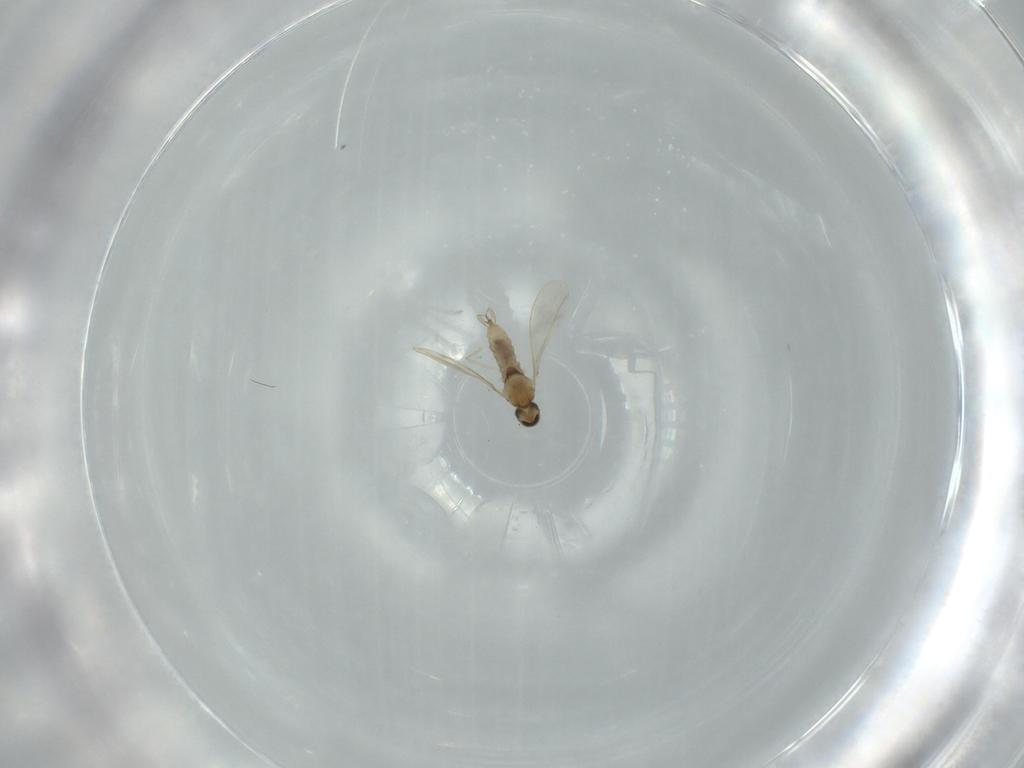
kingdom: Animalia
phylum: Arthropoda
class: Insecta
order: Diptera
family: Cecidomyiidae
